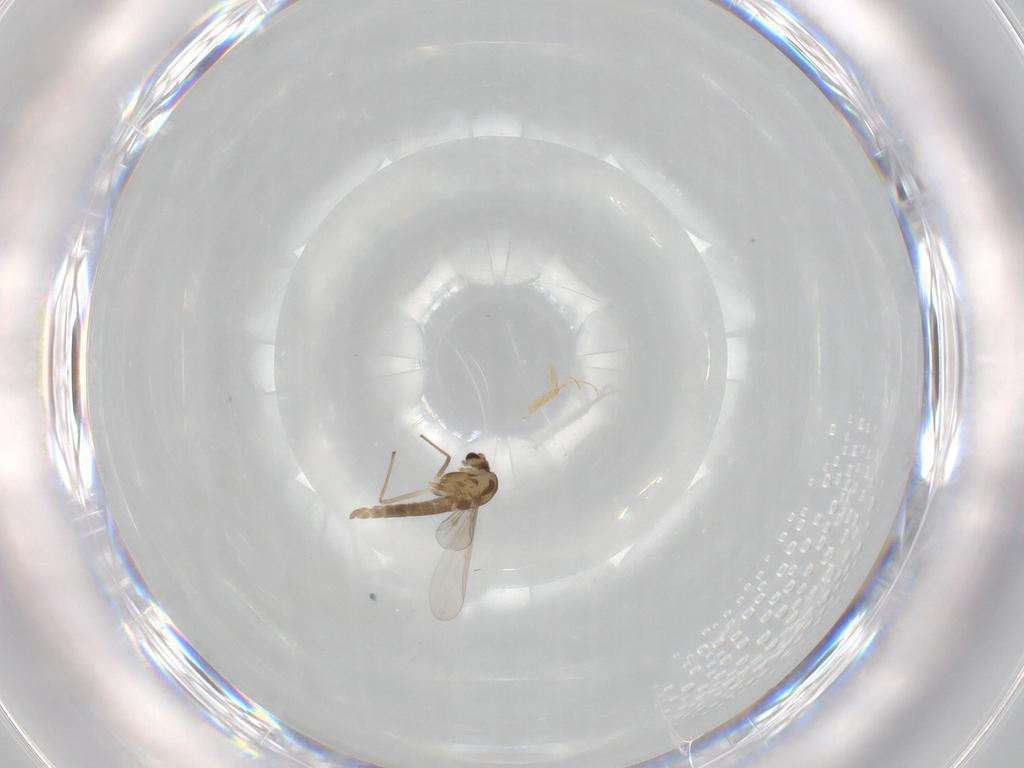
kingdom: Animalia
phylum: Arthropoda
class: Insecta
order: Diptera
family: Chironomidae
